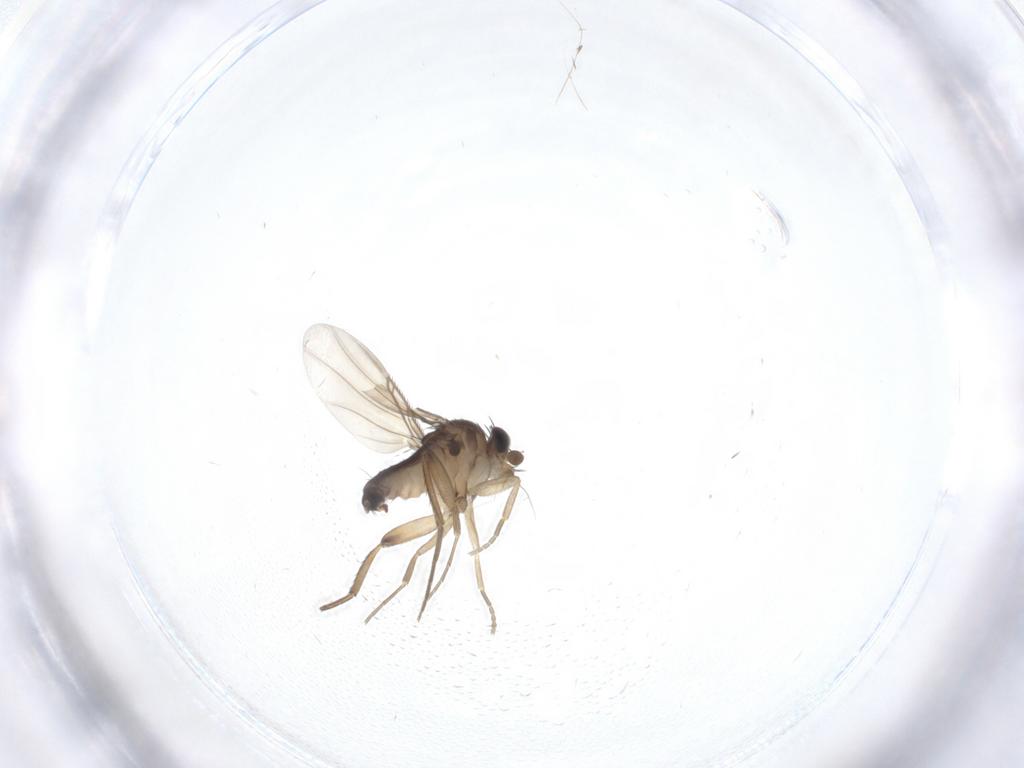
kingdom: Animalia
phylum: Arthropoda
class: Insecta
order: Diptera
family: Phoridae
